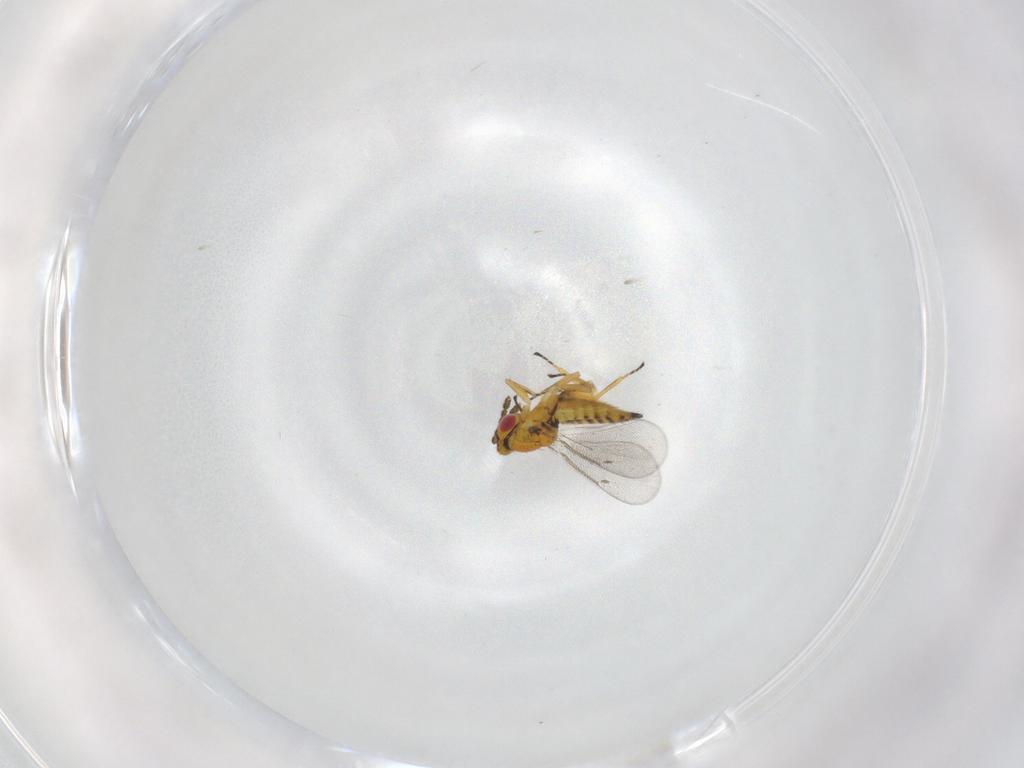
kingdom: Animalia
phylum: Arthropoda
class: Insecta
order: Hymenoptera
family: Eulophidae
